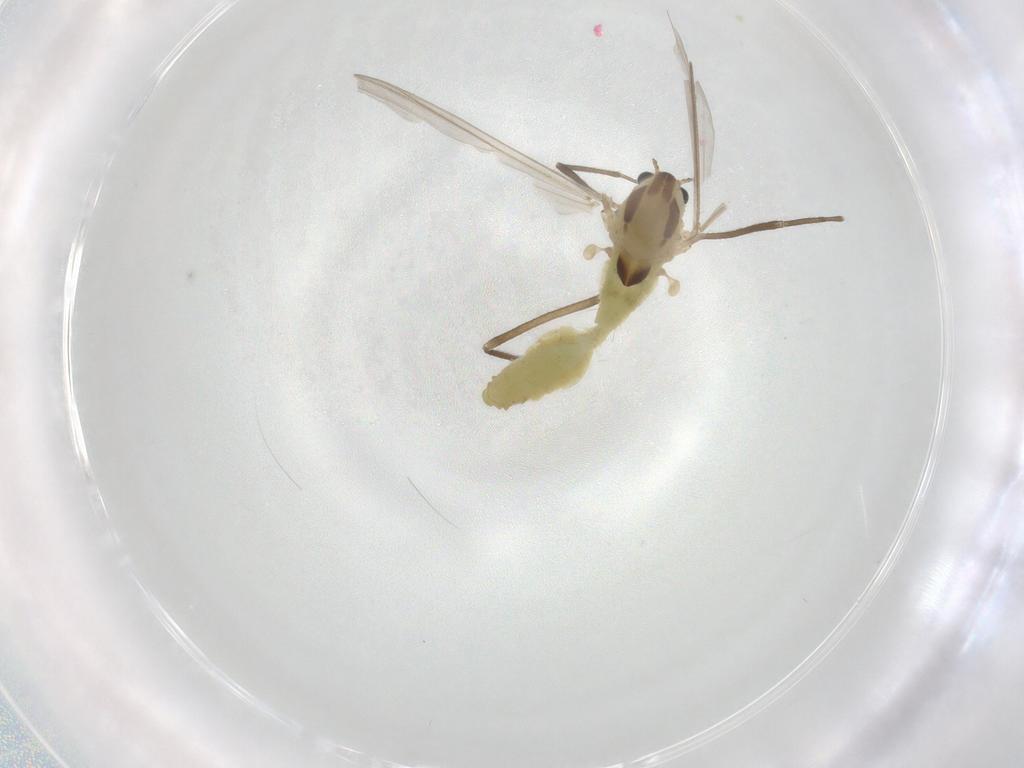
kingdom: Animalia
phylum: Arthropoda
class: Insecta
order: Diptera
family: Chironomidae
